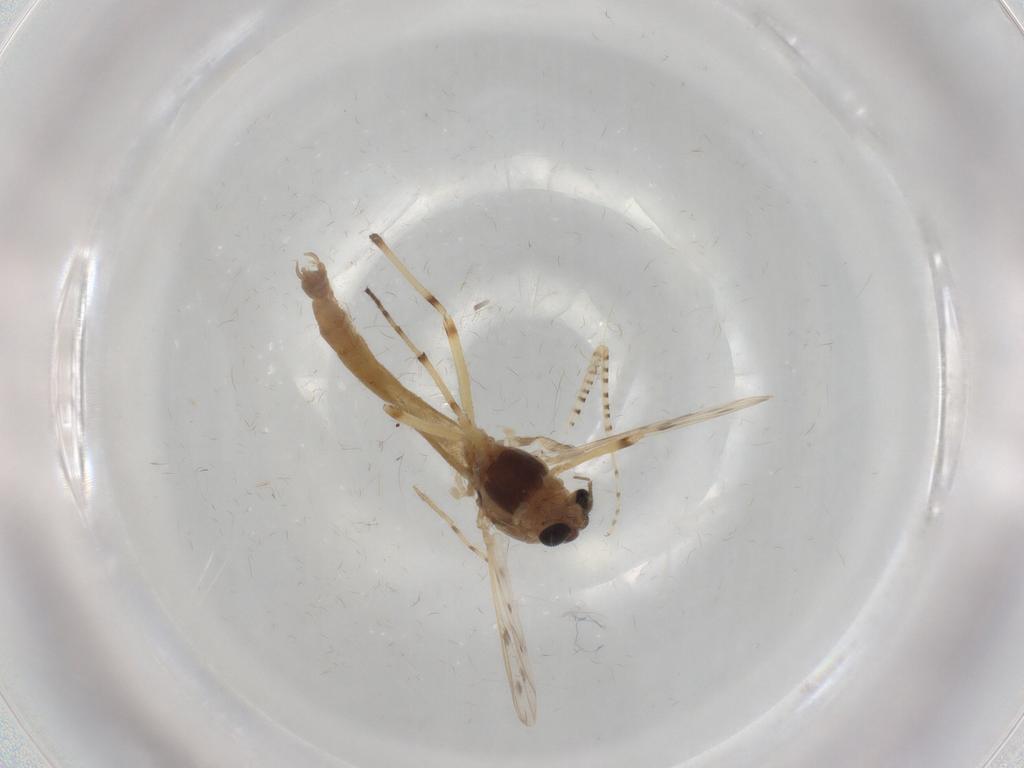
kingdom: Animalia
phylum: Arthropoda
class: Insecta
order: Diptera
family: Chironomidae
